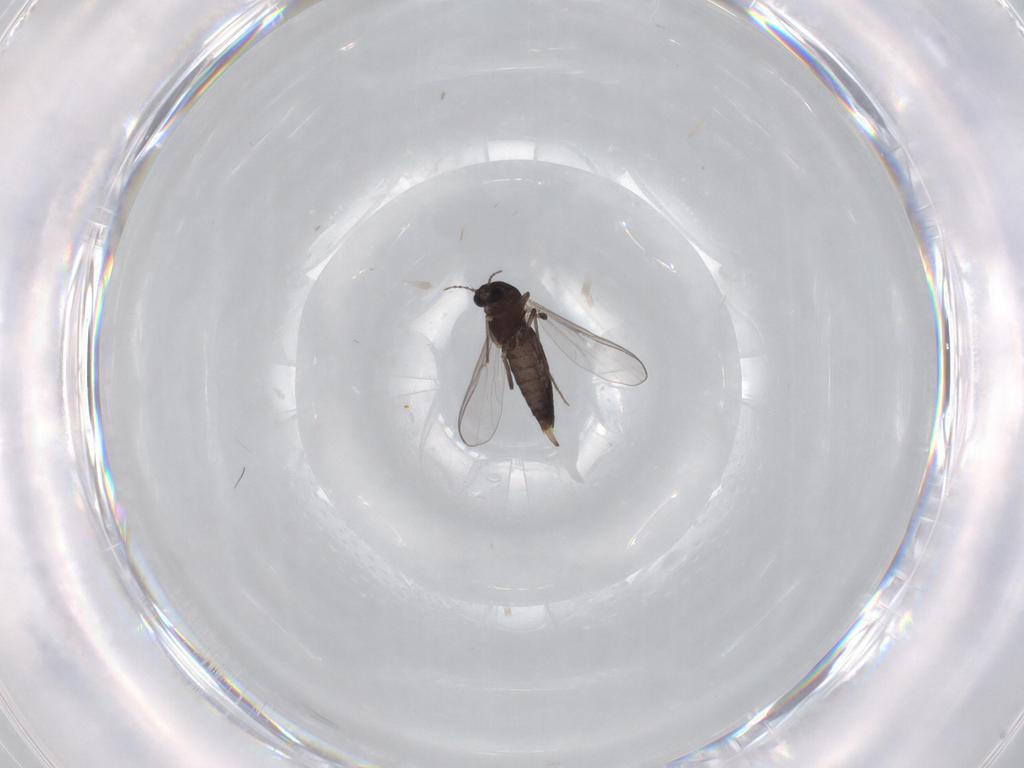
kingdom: Animalia
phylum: Arthropoda
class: Insecta
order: Diptera
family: Chironomidae
